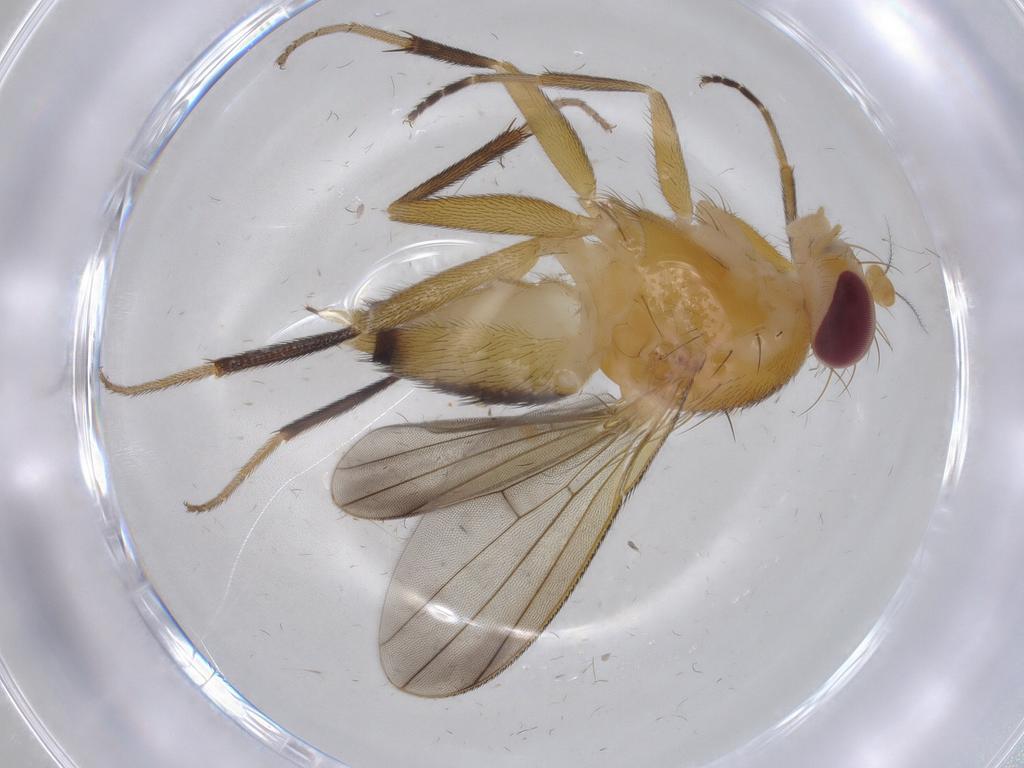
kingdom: Animalia
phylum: Arthropoda
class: Insecta
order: Diptera
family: Clusiidae
